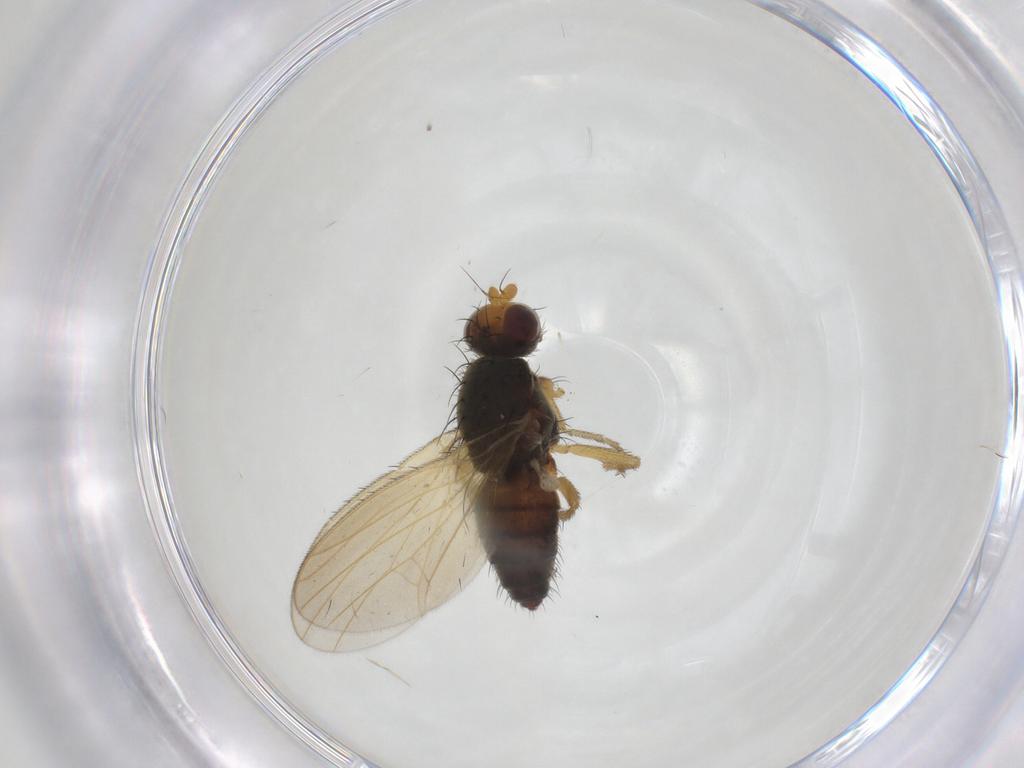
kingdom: Animalia
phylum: Arthropoda
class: Insecta
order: Diptera
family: Heleomyzidae
